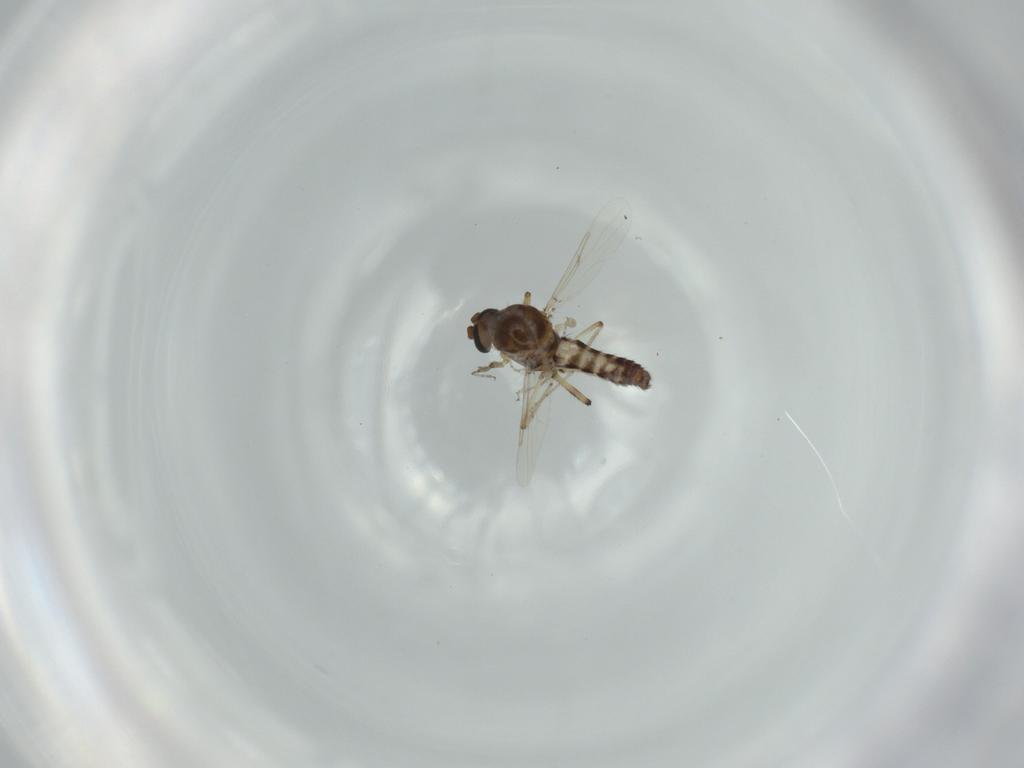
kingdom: Animalia
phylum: Arthropoda
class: Insecta
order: Diptera
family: Ceratopogonidae
